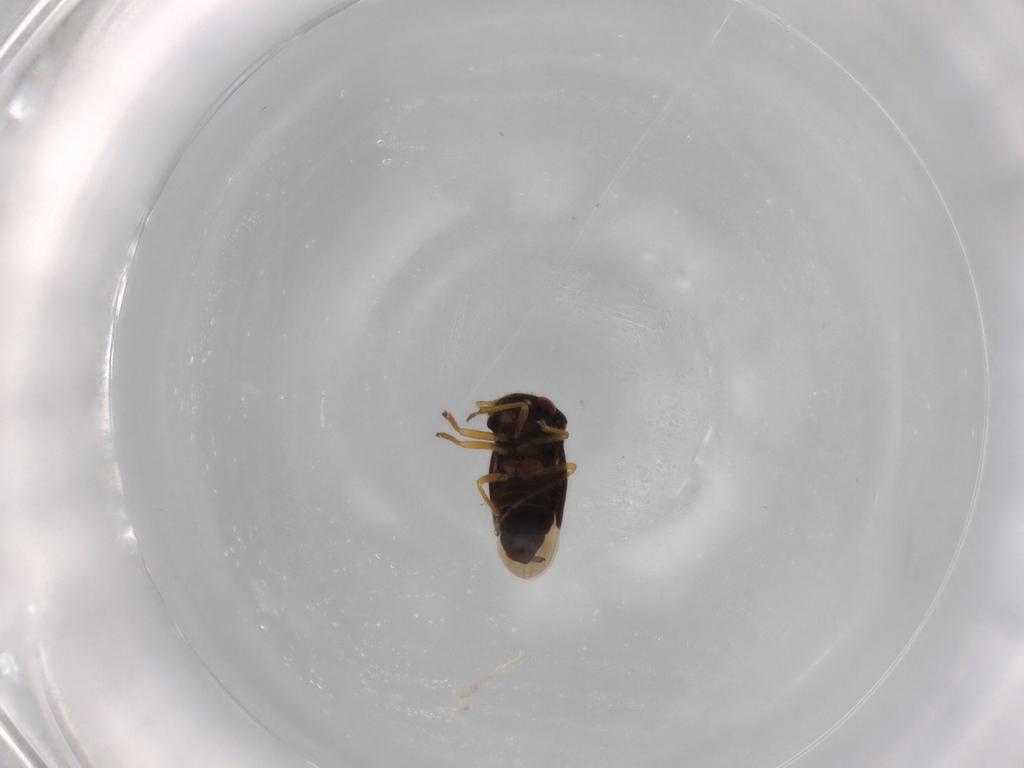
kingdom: Animalia
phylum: Arthropoda
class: Insecta
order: Hemiptera
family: Schizopteridae
